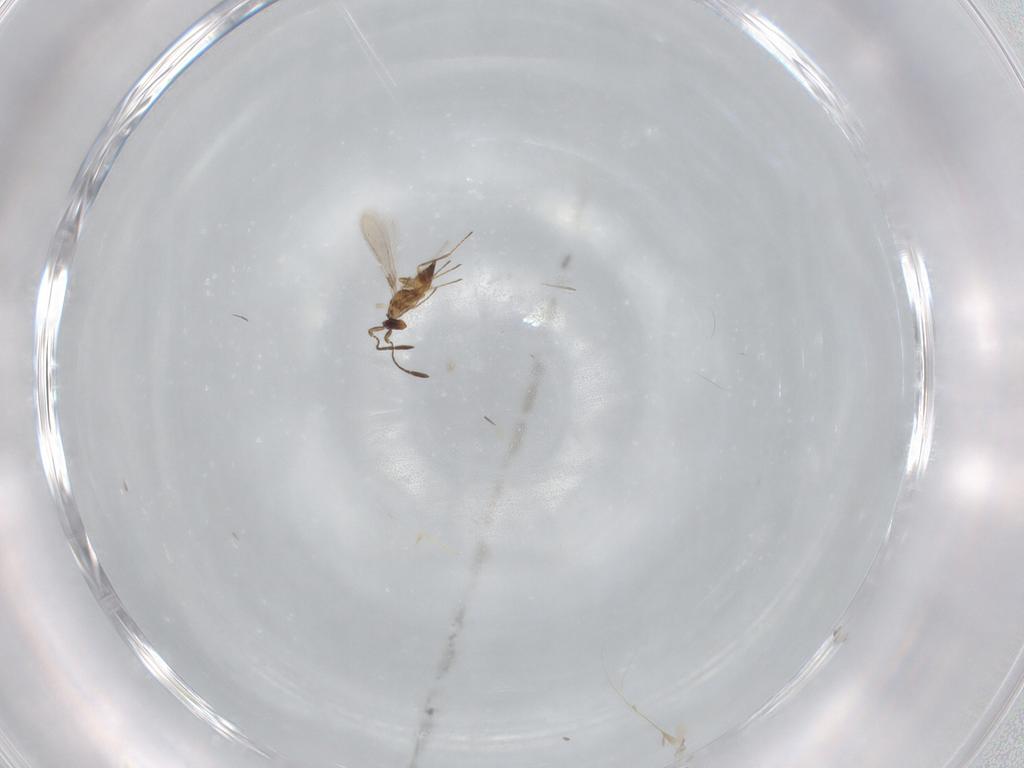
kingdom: Animalia
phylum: Arthropoda
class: Insecta
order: Hymenoptera
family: Mymaridae
